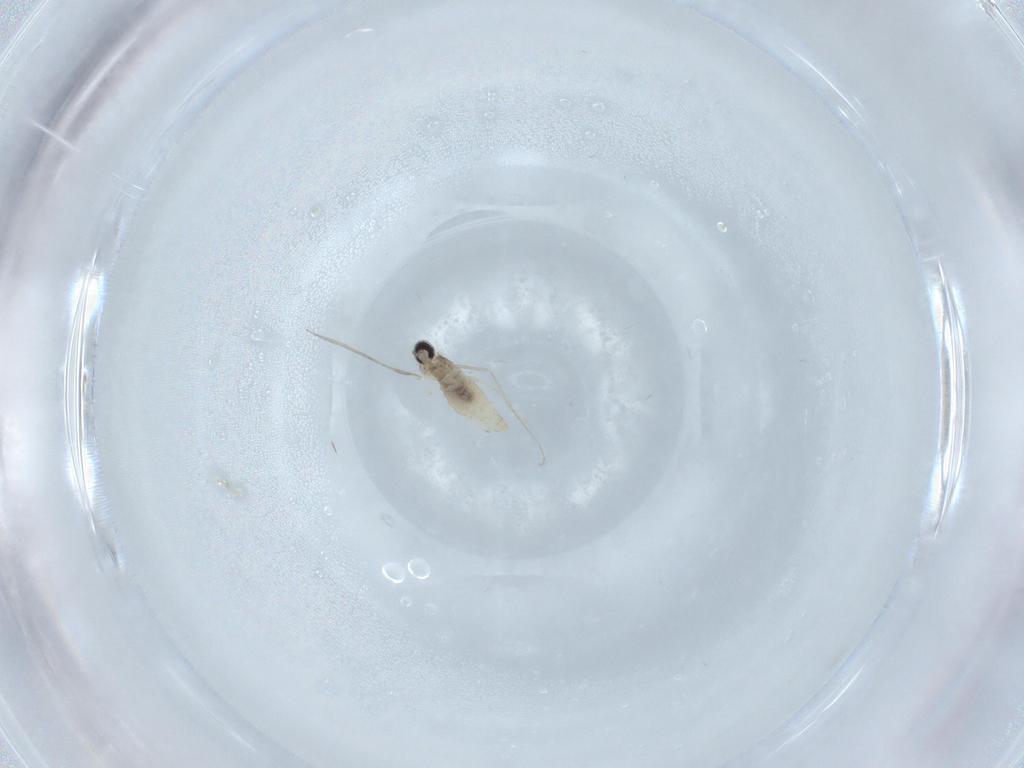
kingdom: Animalia
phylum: Arthropoda
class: Insecta
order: Diptera
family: Cecidomyiidae
